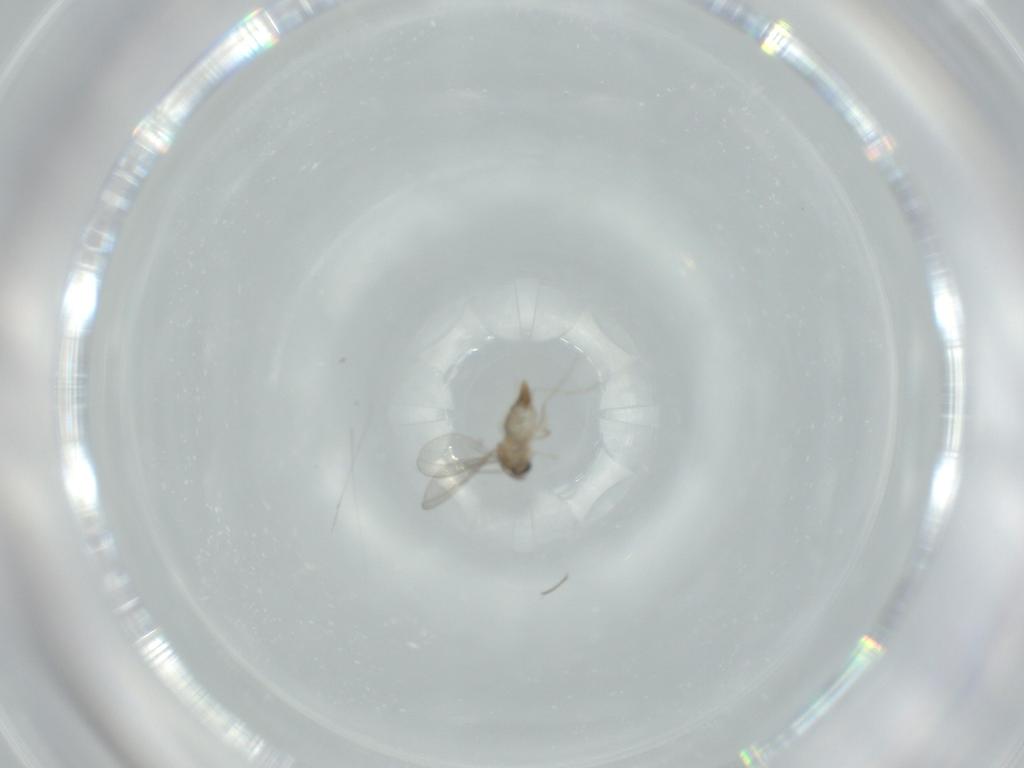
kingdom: Animalia
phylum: Arthropoda
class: Insecta
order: Diptera
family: Cecidomyiidae
